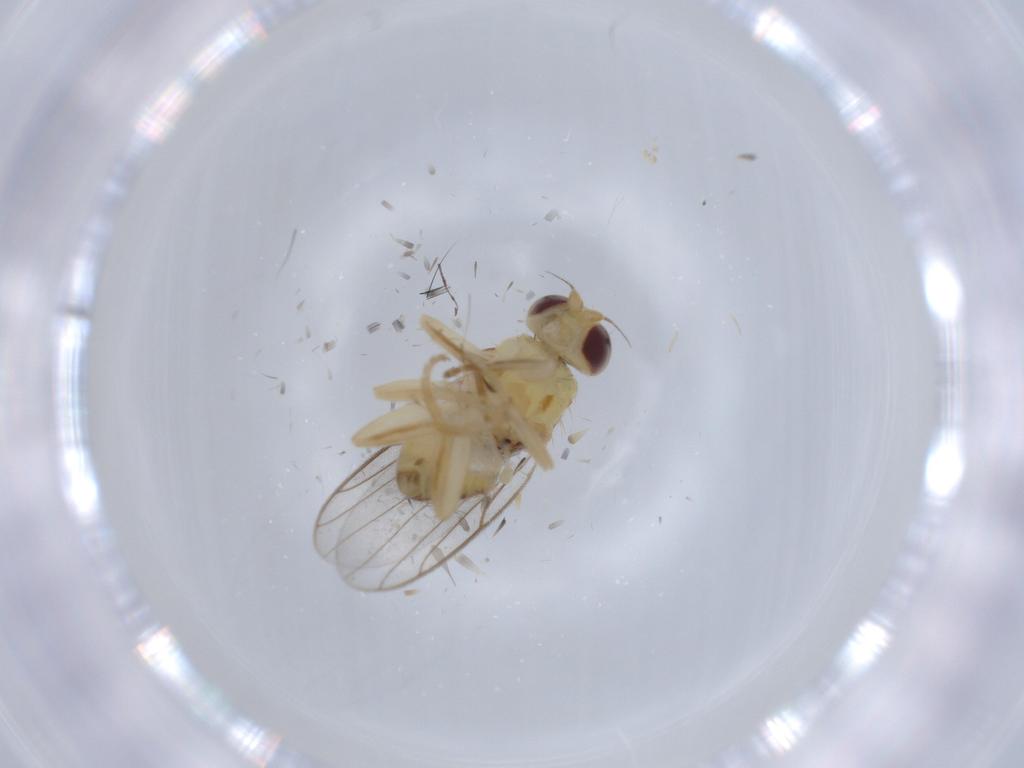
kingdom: Animalia
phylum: Arthropoda
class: Insecta
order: Diptera
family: Chloropidae
